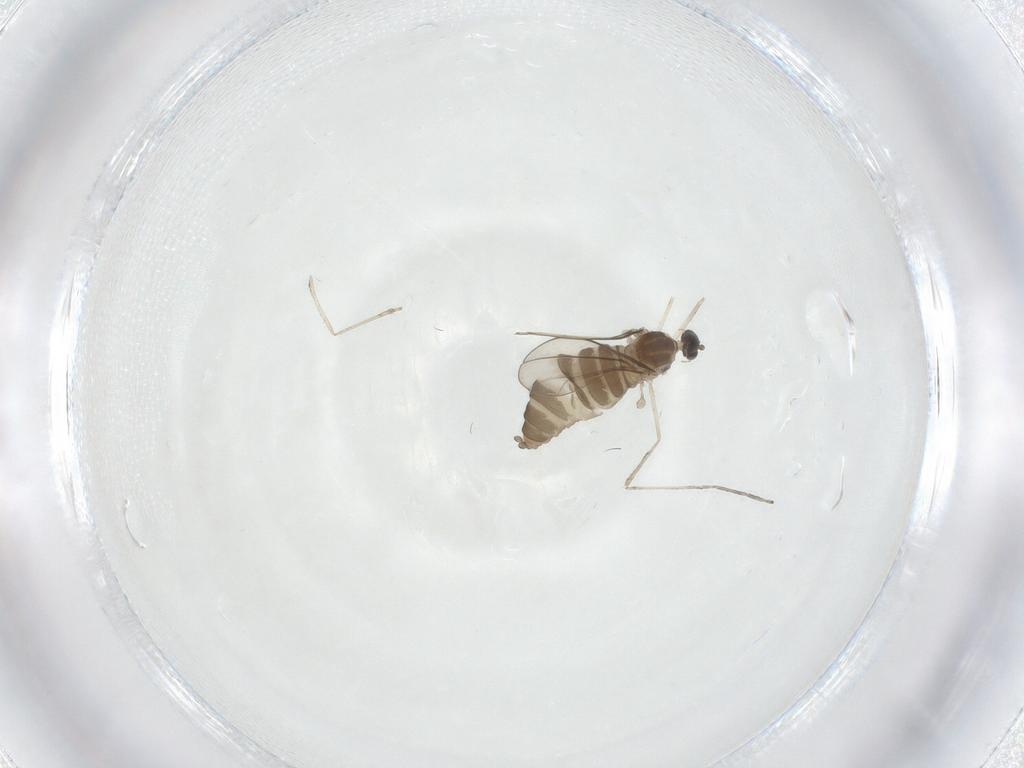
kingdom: Animalia
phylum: Arthropoda
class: Insecta
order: Diptera
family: Cecidomyiidae
